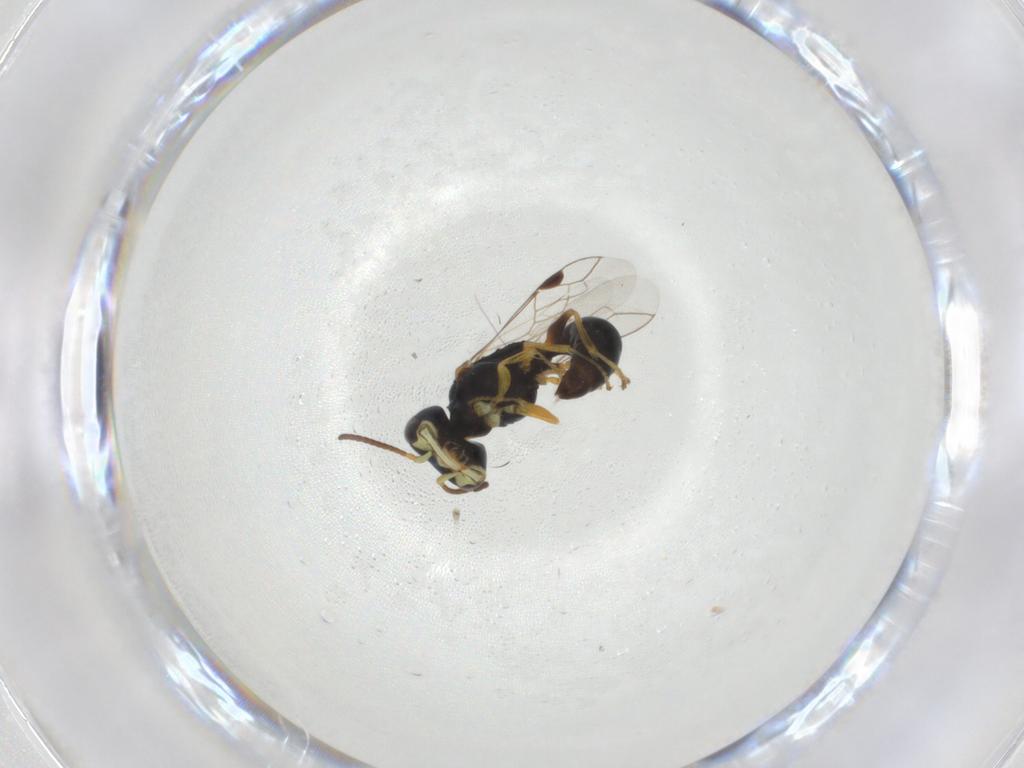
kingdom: Animalia
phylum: Arthropoda
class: Insecta
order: Hymenoptera
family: Pemphredonidae
